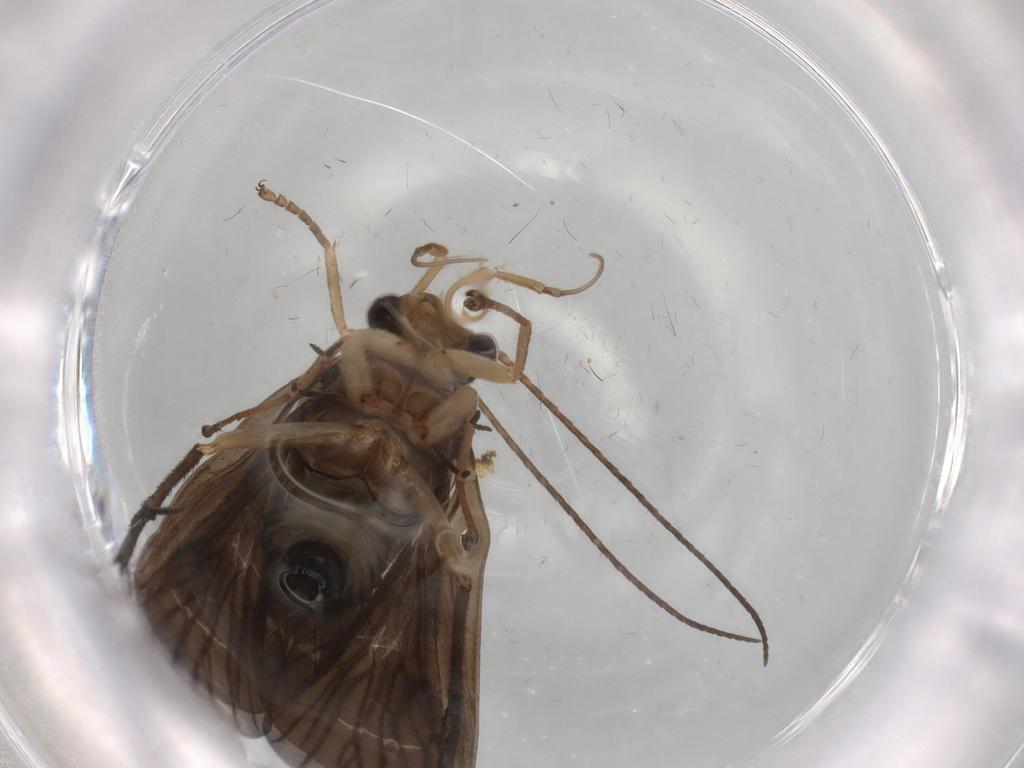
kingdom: Animalia
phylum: Arthropoda
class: Insecta
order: Trichoptera
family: Philopotamidae
